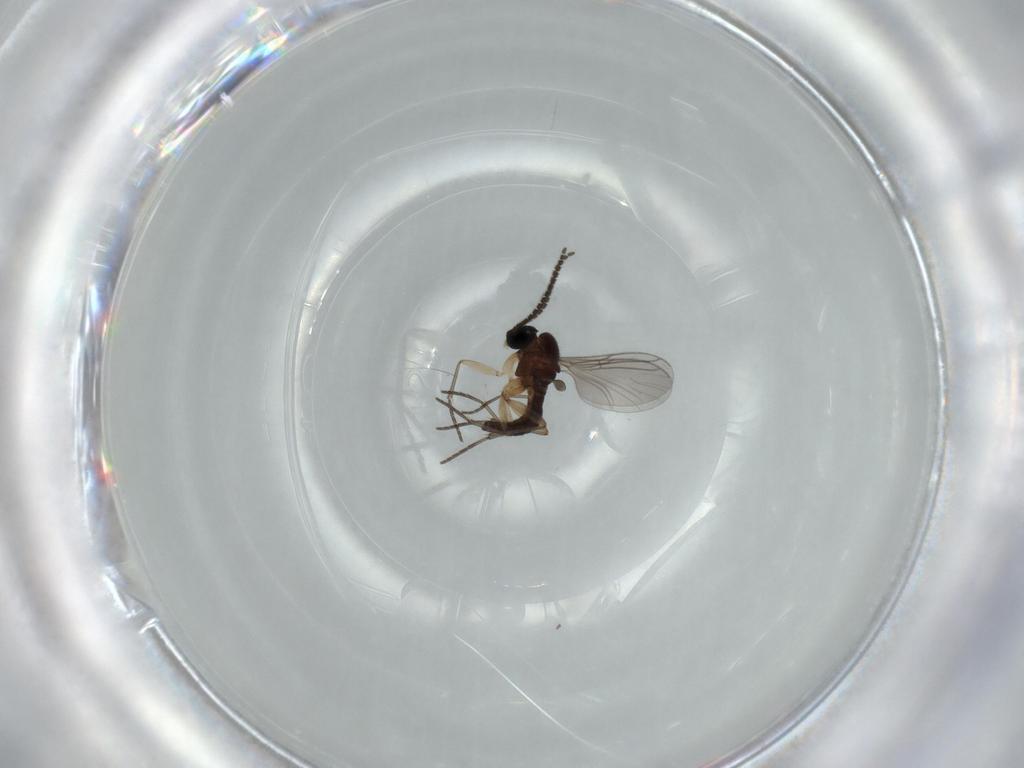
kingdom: Animalia
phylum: Arthropoda
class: Insecta
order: Diptera
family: Sciaridae
